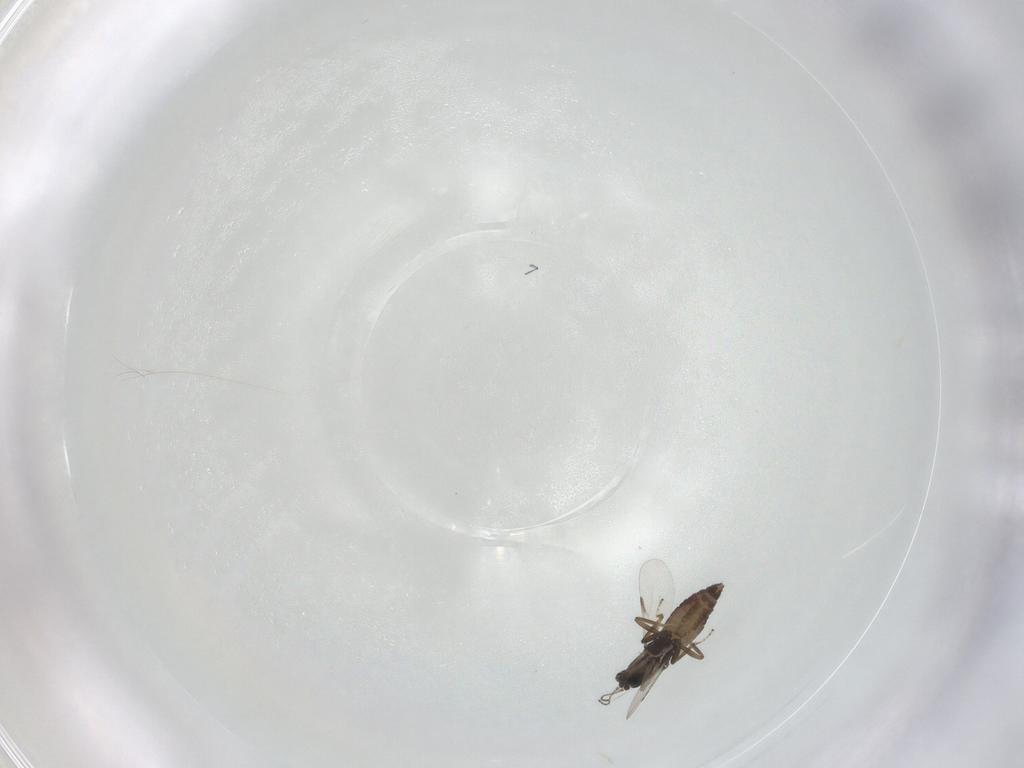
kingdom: Animalia
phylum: Arthropoda
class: Insecta
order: Diptera
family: Ceratopogonidae
